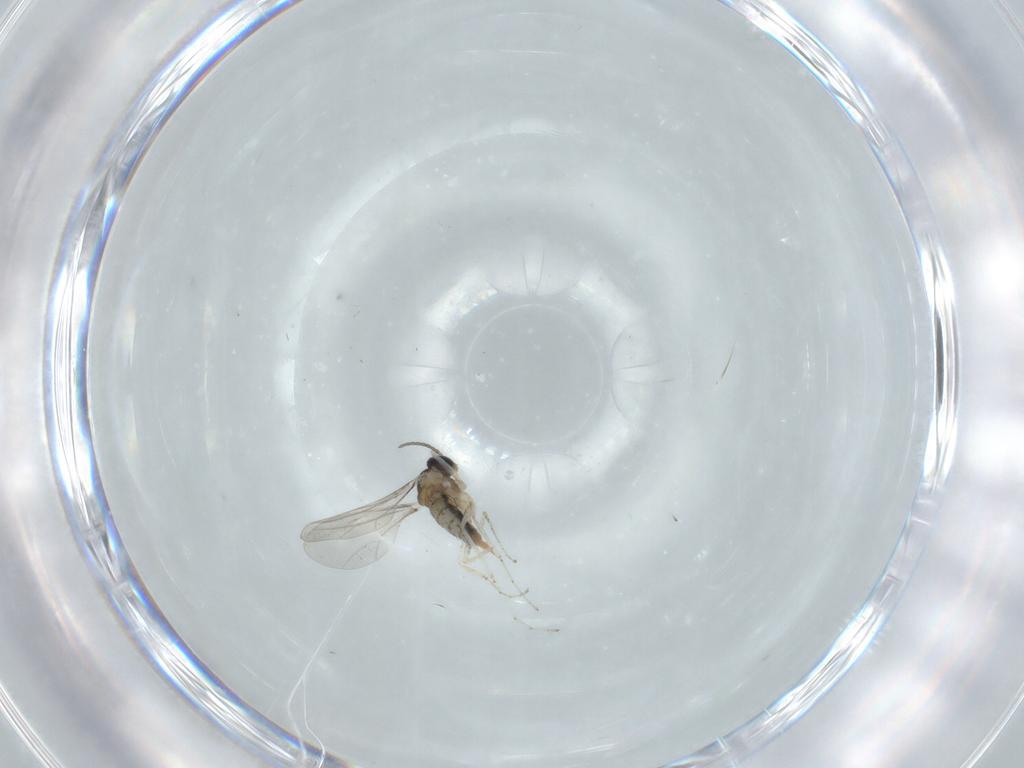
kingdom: Animalia
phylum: Arthropoda
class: Insecta
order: Diptera
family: Cecidomyiidae
